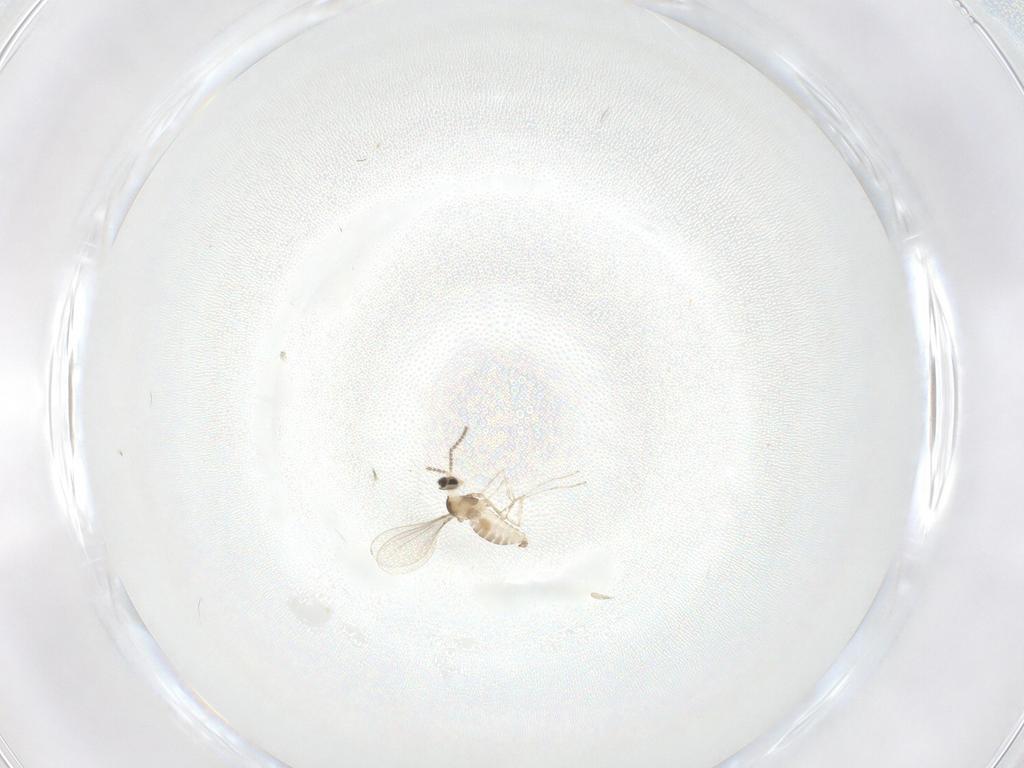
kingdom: Animalia
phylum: Arthropoda
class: Insecta
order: Diptera
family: Cecidomyiidae
